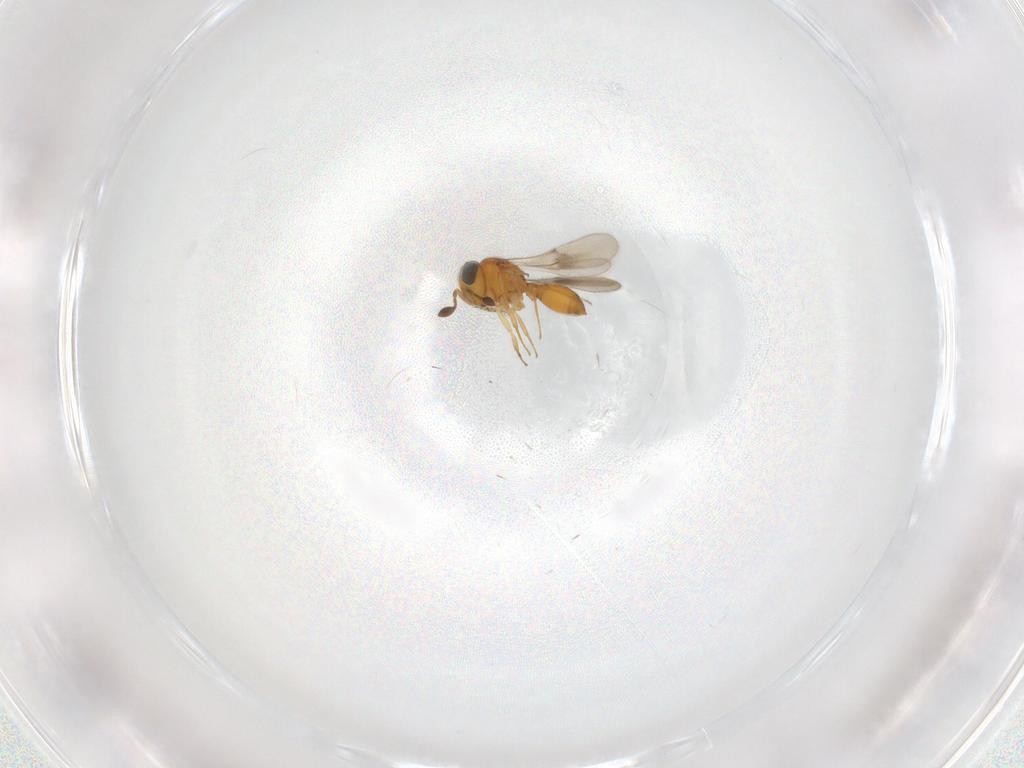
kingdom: Animalia
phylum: Arthropoda
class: Insecta
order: Hymenoptera
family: Scelionidae
